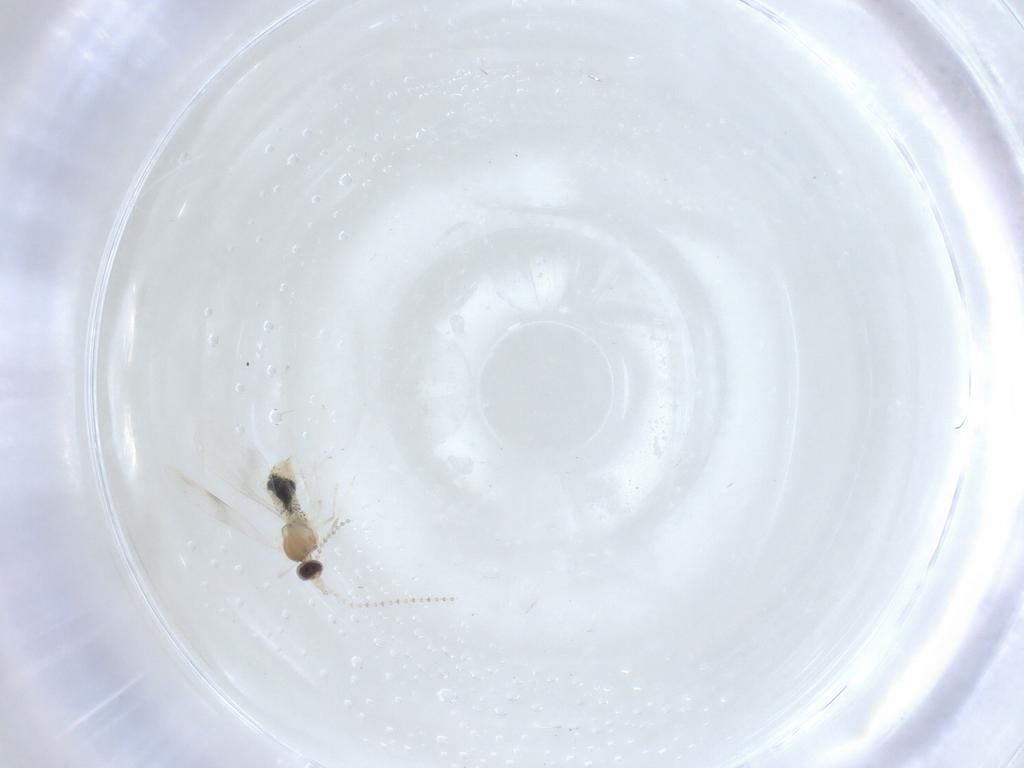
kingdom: Animalia
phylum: Arthropoda
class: Insecta
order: Diptera
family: Cecidomyiidae
